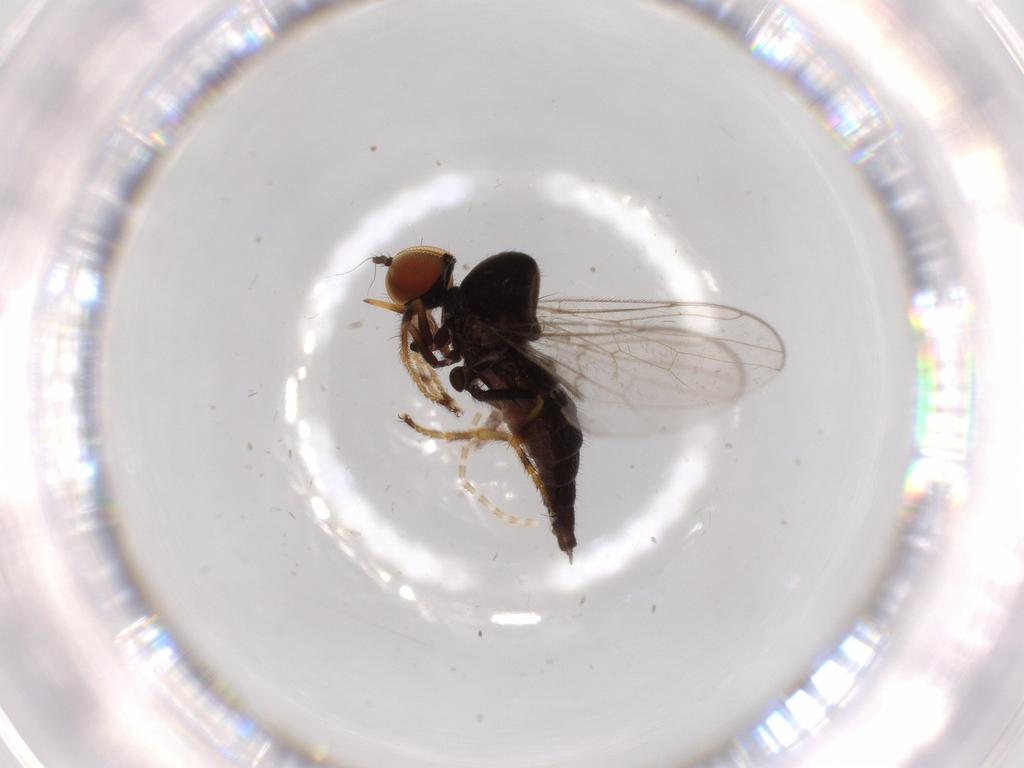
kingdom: Animalia
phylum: Arthropoda
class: Insecta
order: Diptera
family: Hybotidae
